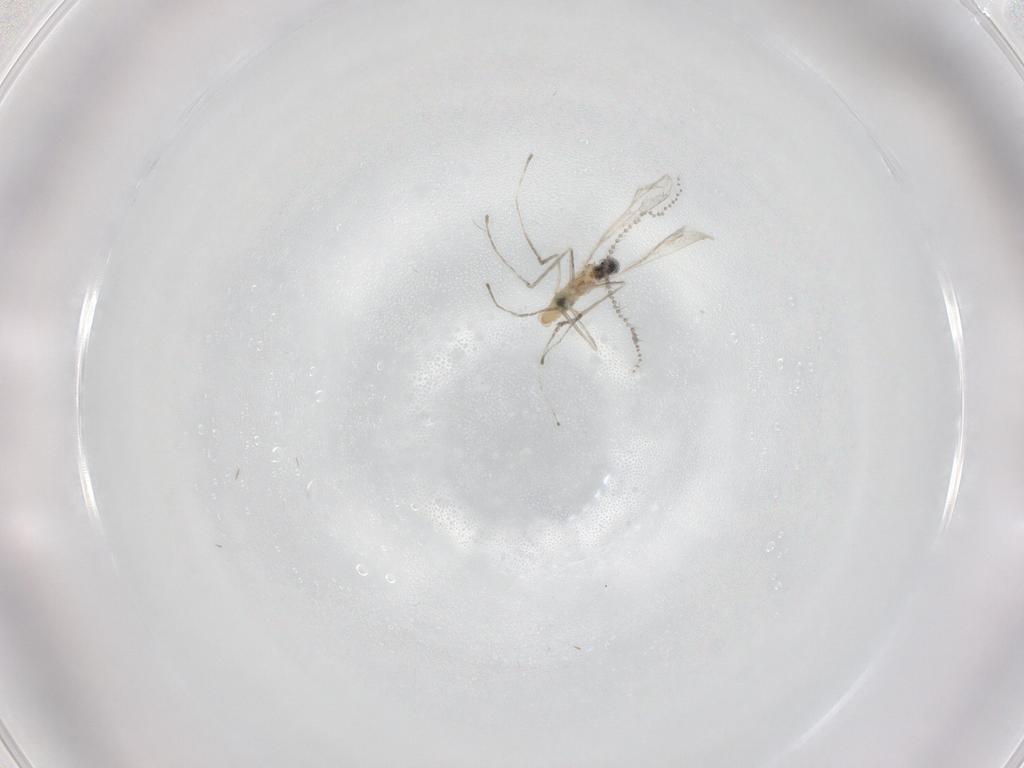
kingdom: Animalia
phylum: Arthropoda
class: Insecta
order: Diptera
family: Cecidomyiidae
